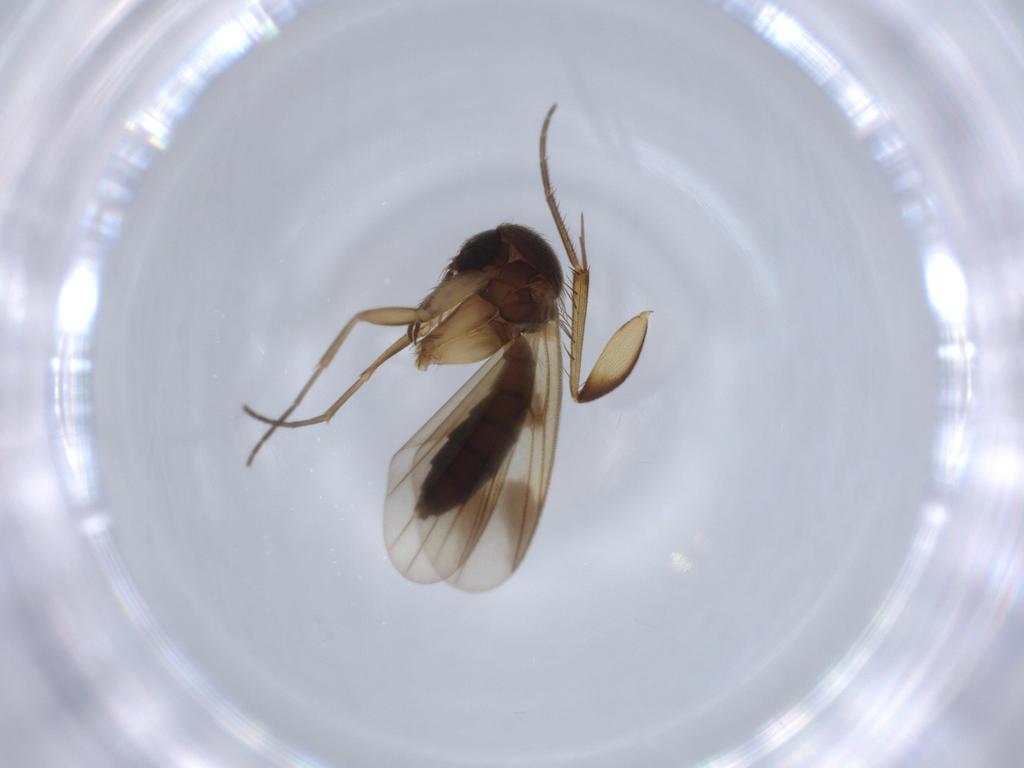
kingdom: Animalia
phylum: Arthropoda
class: Insecta
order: Diptera
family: Mycetophilidae
